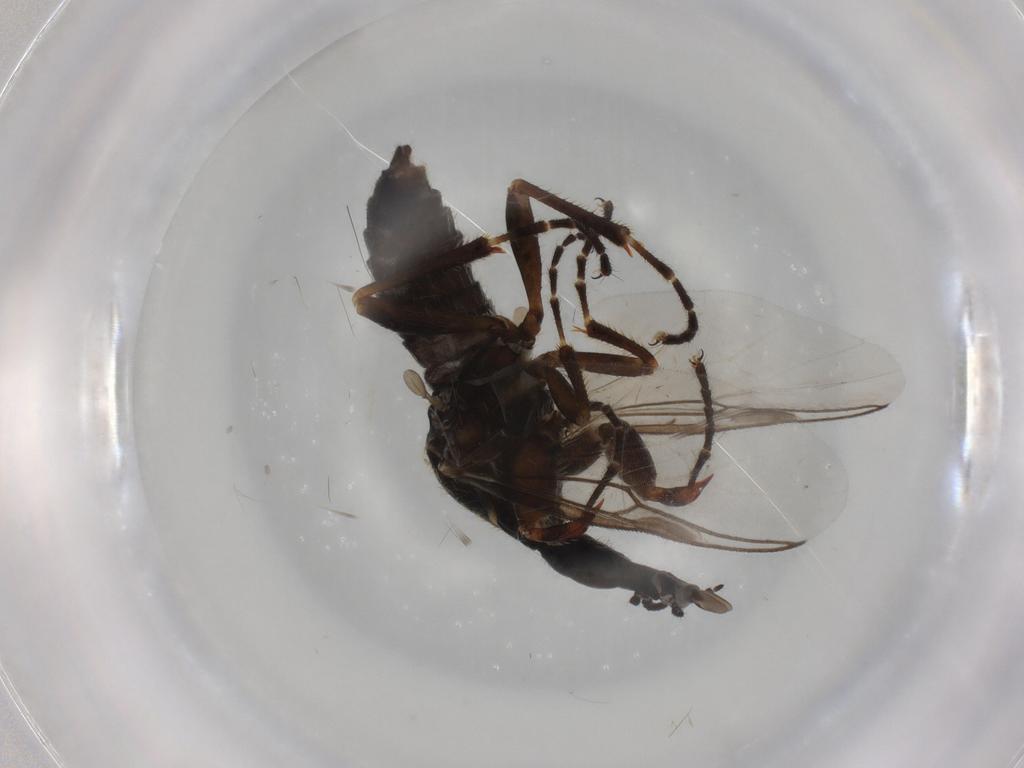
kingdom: Animalia
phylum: Arthropoda
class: Insecta
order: Diptera
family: Bibionidae
